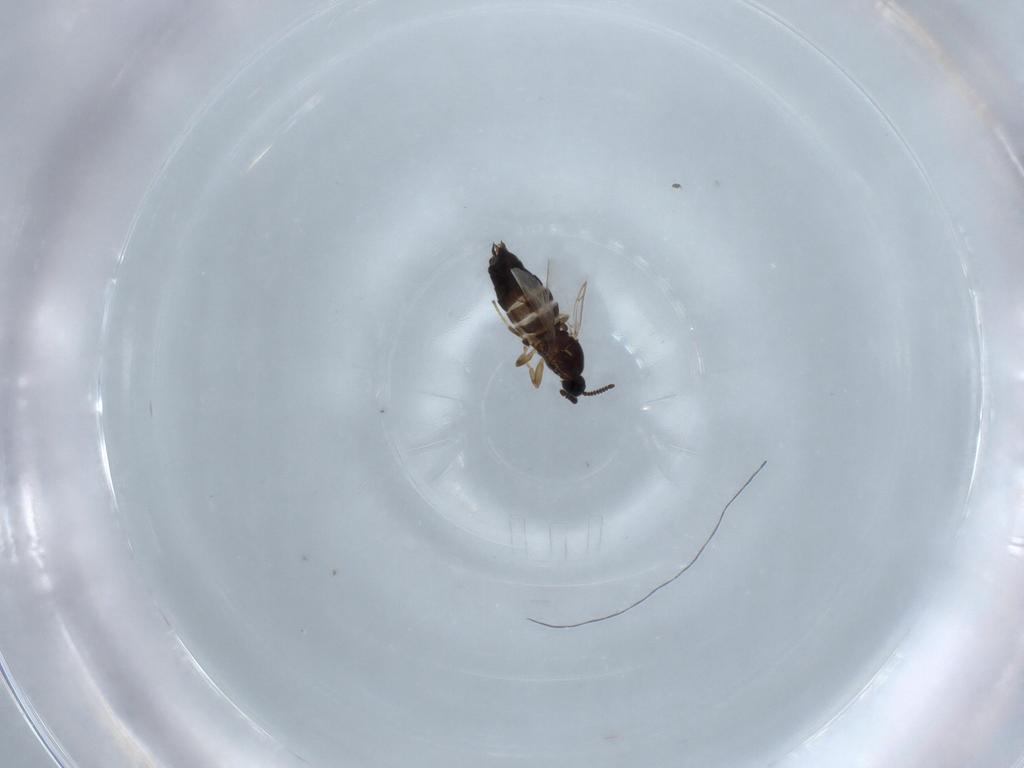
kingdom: Animalia
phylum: Arthropoda
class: Insecta
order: Diptera
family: Scatopsidae
